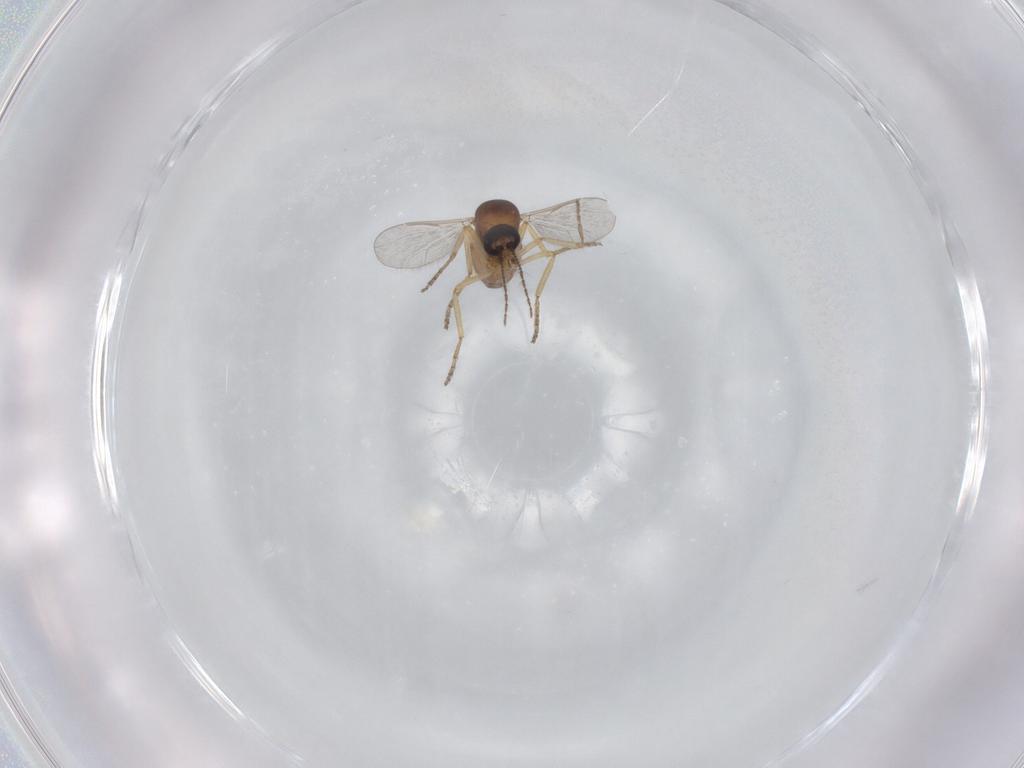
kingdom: Animalia
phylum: Arthropoda
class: Insecta
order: Diptera
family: Ceratopogonidae
